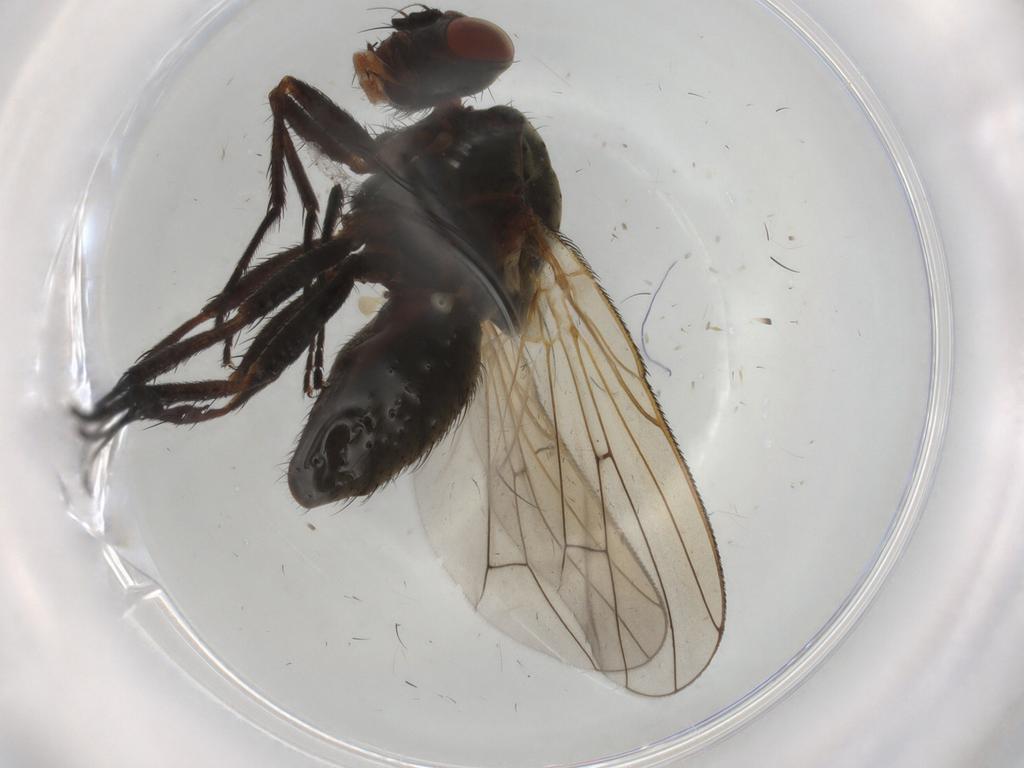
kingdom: Animalia
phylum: Arthropoda
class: Insecta
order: Diptera
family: Anthomyiidae
